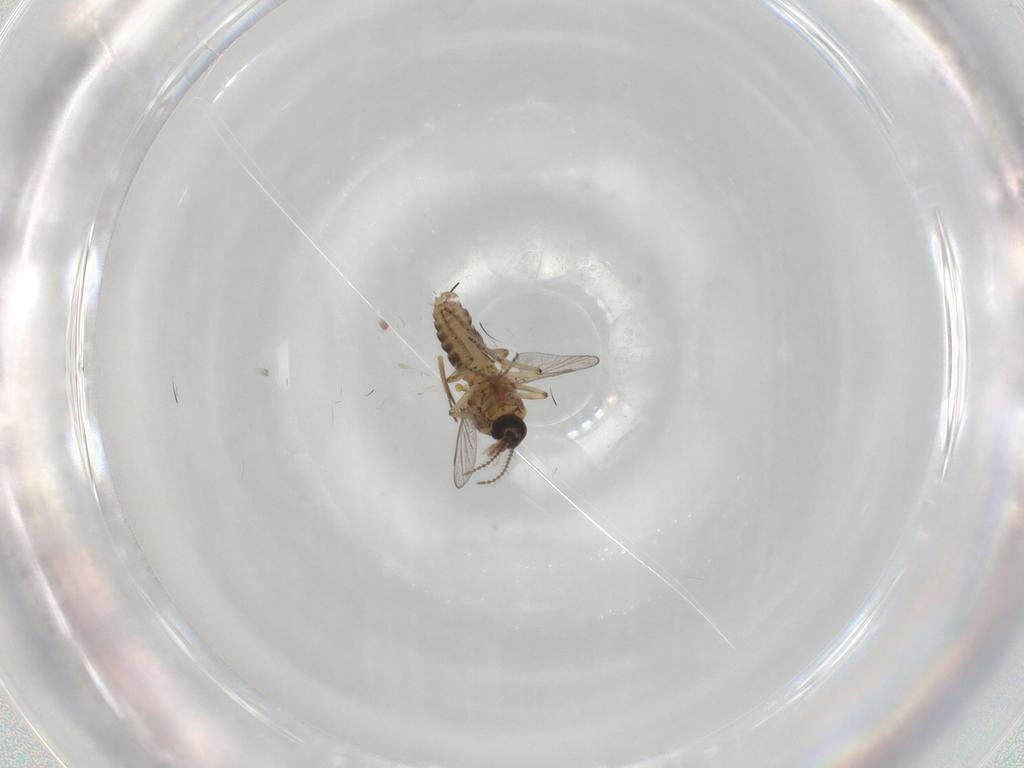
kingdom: Animalia
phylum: Arthropoda
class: Insecta
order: Diptera
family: Ceratopogonidae
